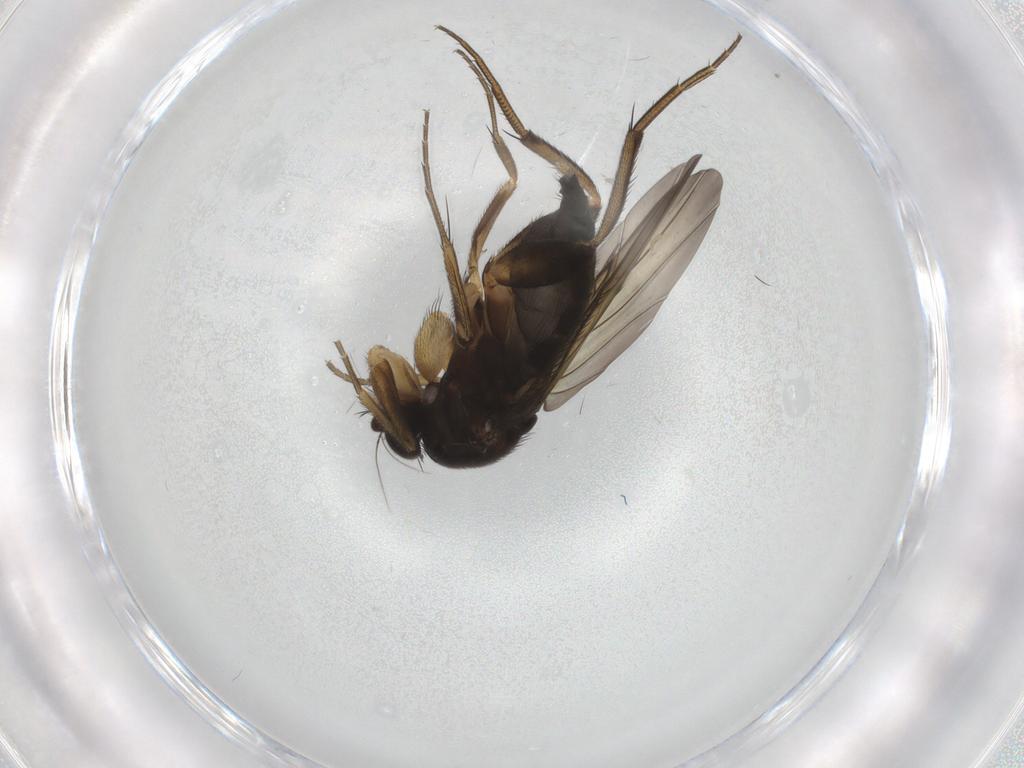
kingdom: Animalia
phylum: Arthropoda
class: Insecta
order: Diptera
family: Phoridae
